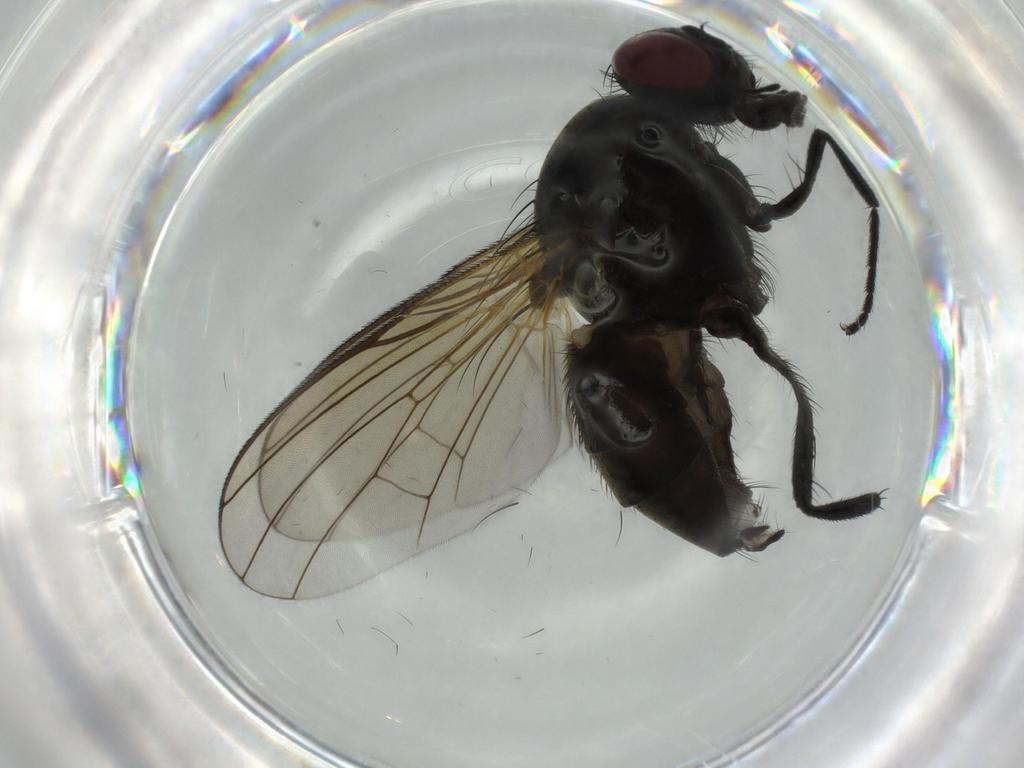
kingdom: Animalia
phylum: Arthropoda
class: Insecta
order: Diptera
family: Muscidae
